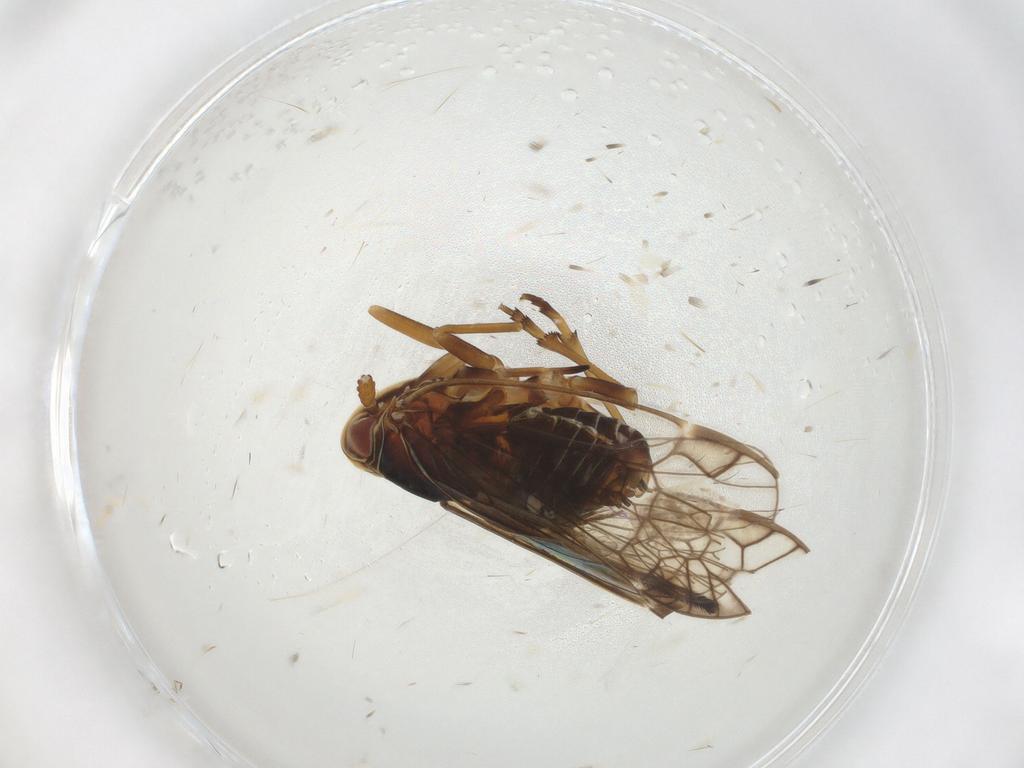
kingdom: Animalia
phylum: Arthropoda
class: Insecta
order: Hemiptera
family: Kinnaridae
